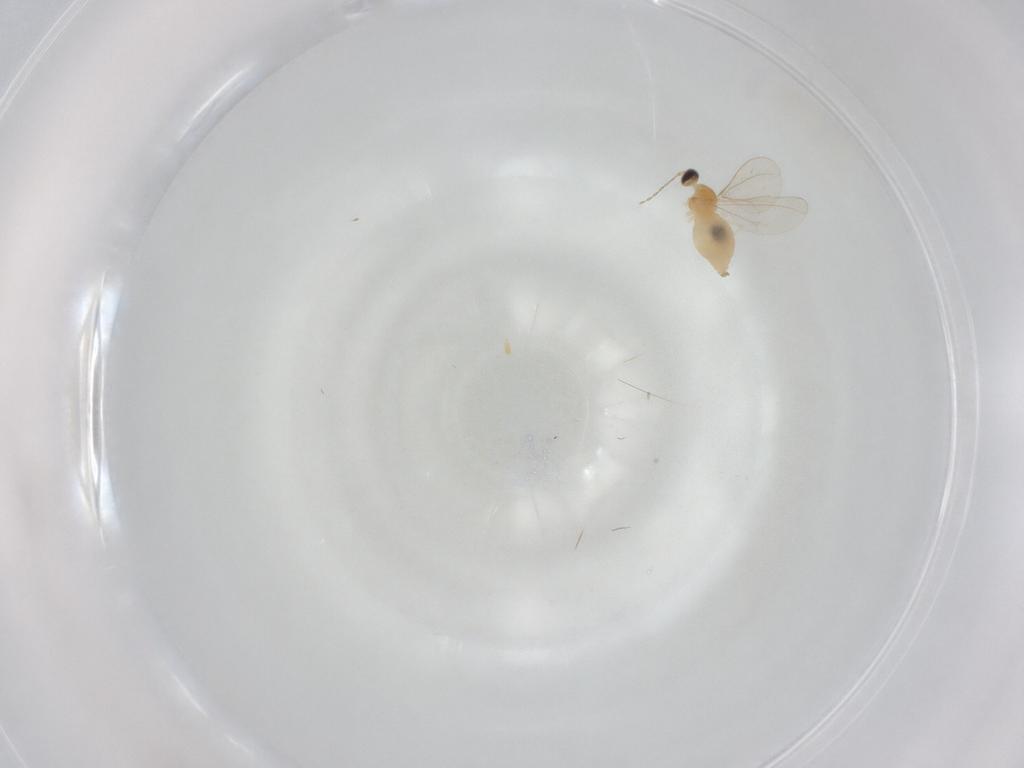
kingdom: Animalia
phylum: Arthropoda
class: Insecta
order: Diptera
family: Cecidomyiidae
